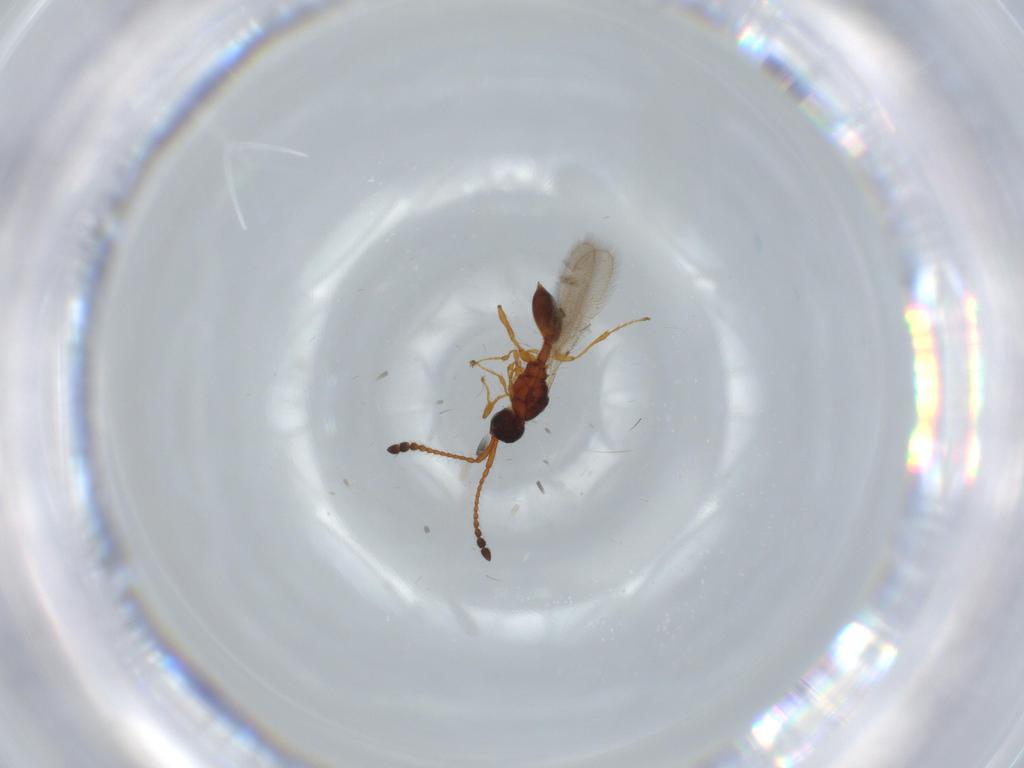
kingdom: Animalia
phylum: Arthropoda
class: Insecta
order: Hymenoptera
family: Diapriidae
